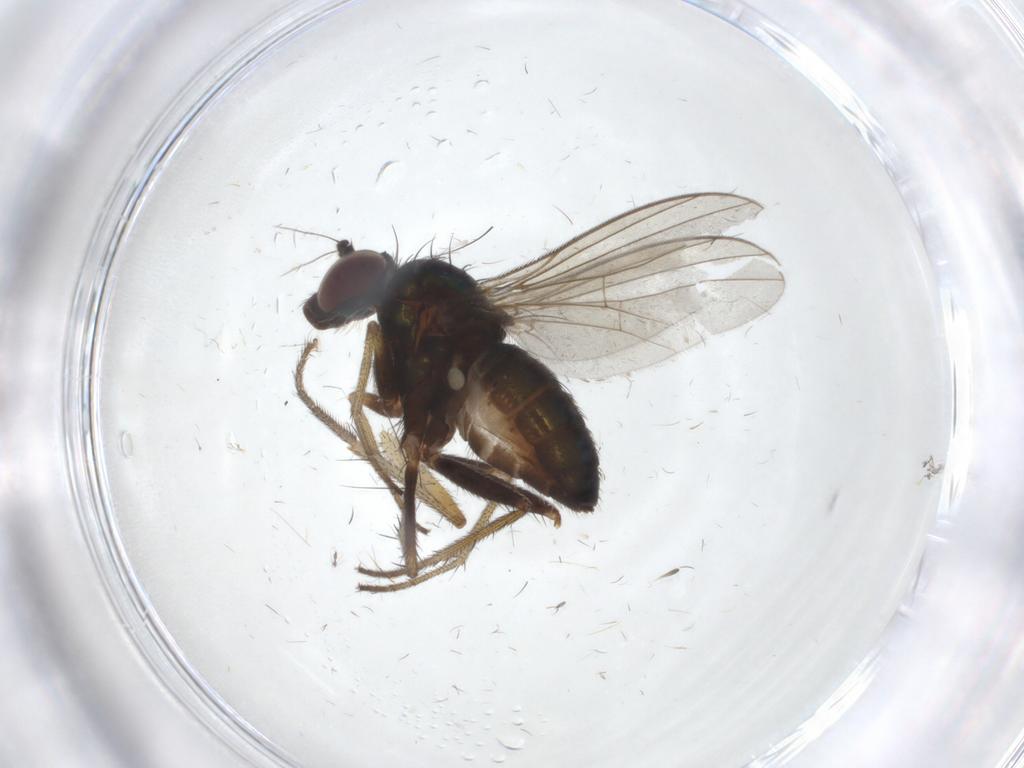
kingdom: Animalia
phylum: Arthropoda
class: Insecta
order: Diptera
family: Anthomyiidae
